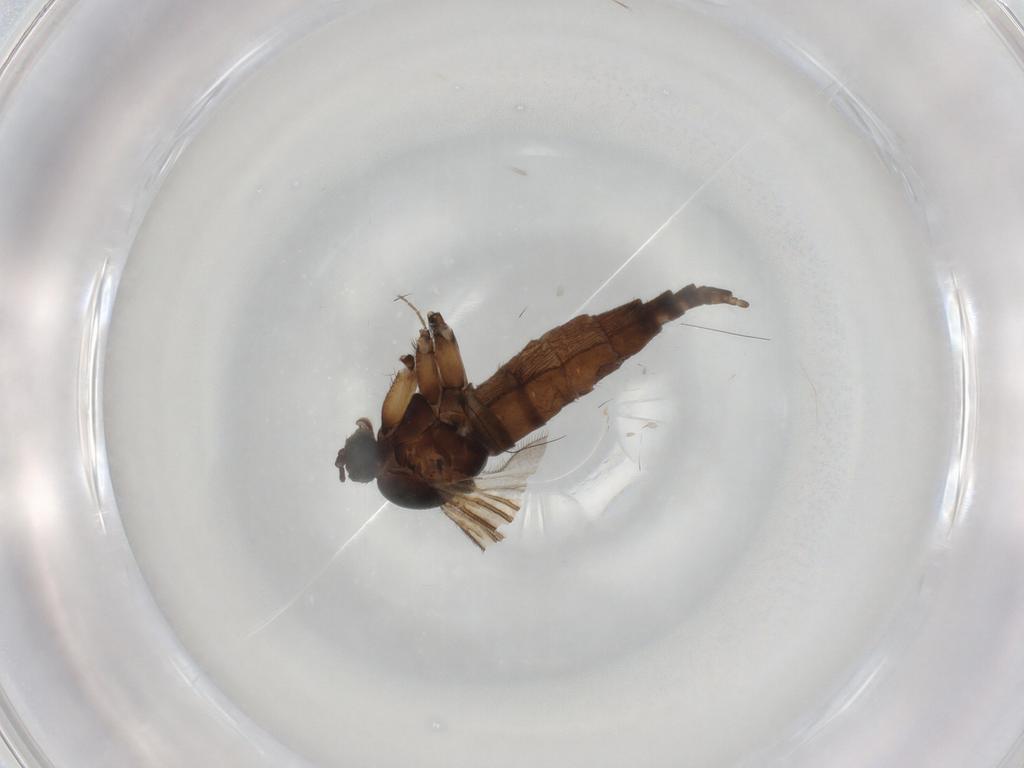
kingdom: Animalia
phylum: Arthropoda
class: Insecta
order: Diptera
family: Sciaridae
